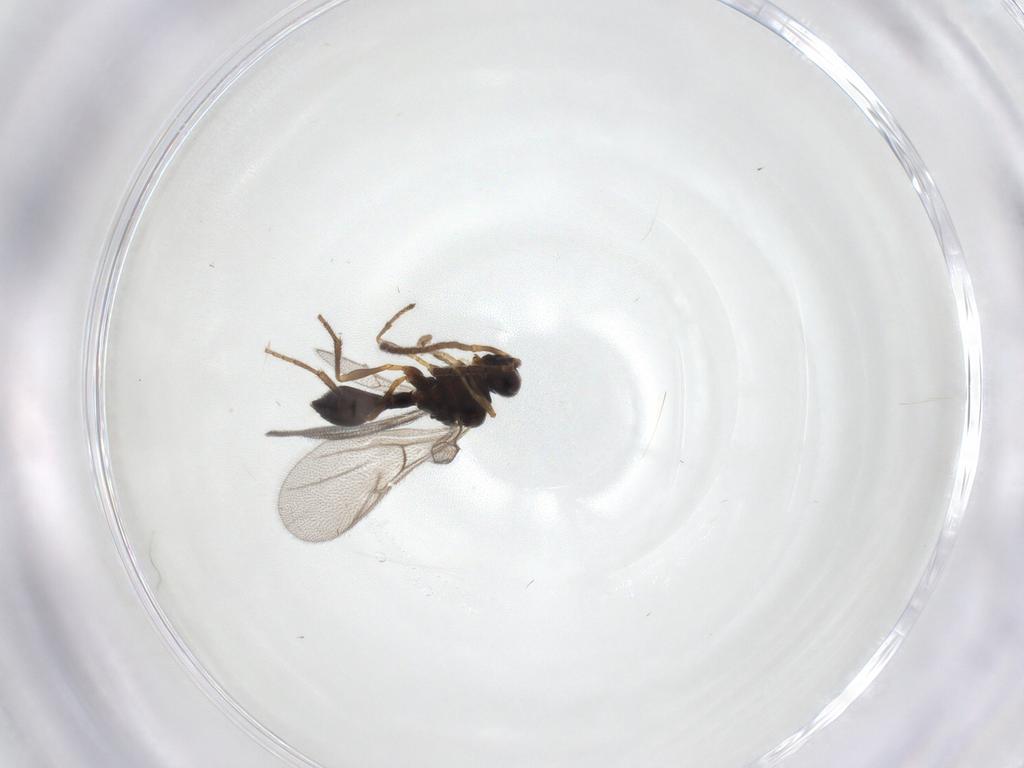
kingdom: Animalia
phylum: Arthropoda
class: Insecta
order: Hymenoptera
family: Diapriidae
